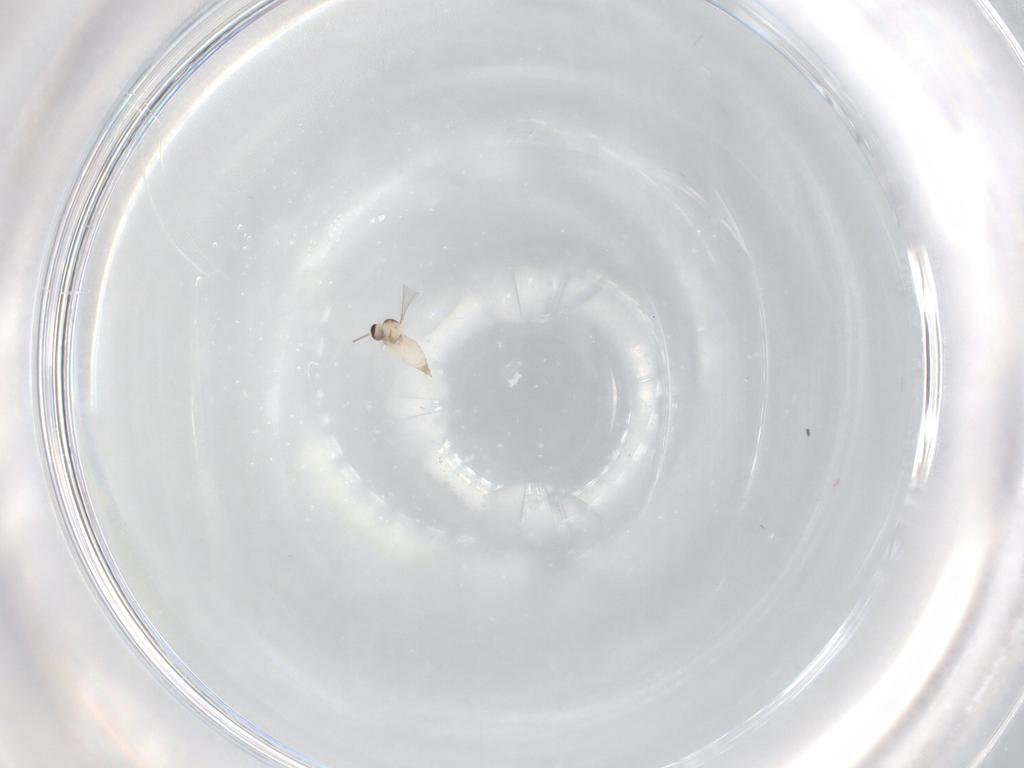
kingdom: Animalia
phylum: Arthropoda
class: Insecta
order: Diptera
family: Cecidomyiidae
